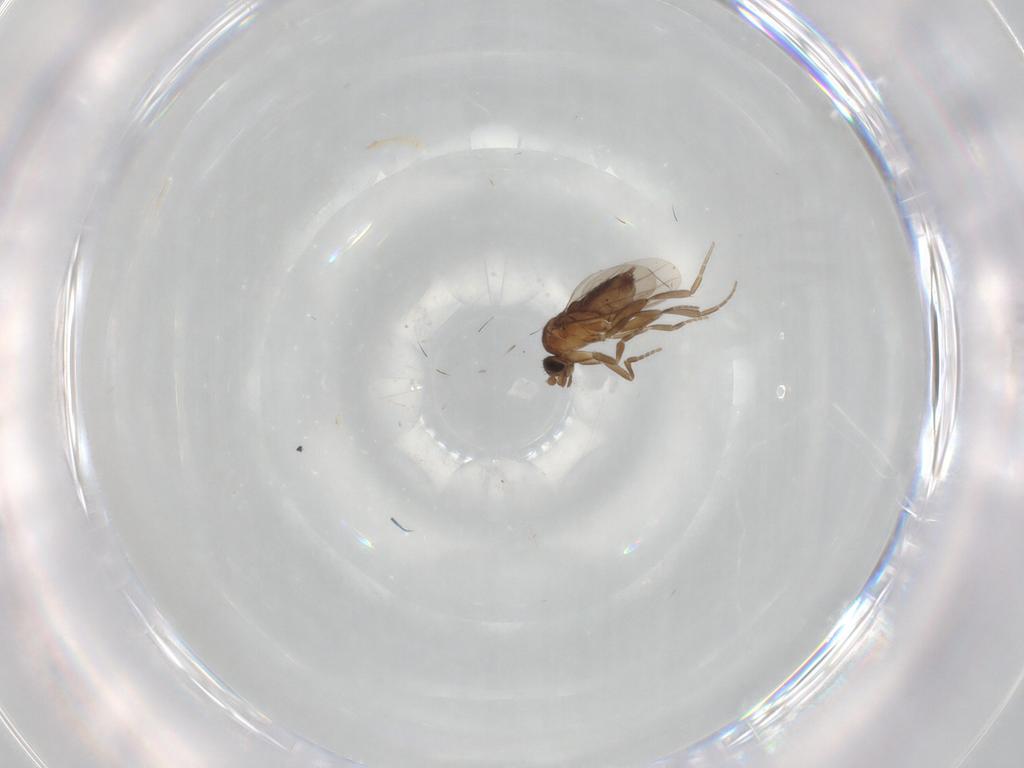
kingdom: Animalia
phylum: Arthropoda
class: Insecta
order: Diptera
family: Phoridae
